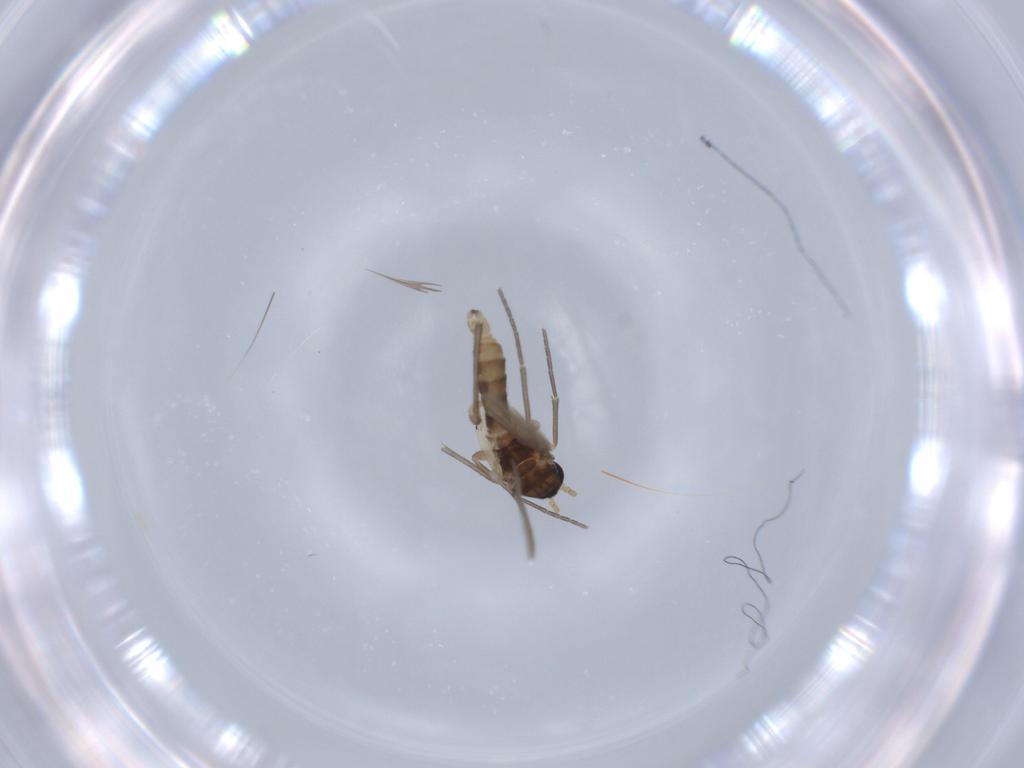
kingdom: Animalia
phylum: Arthropoda
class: Insecta
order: Diptera
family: Sciaridae
